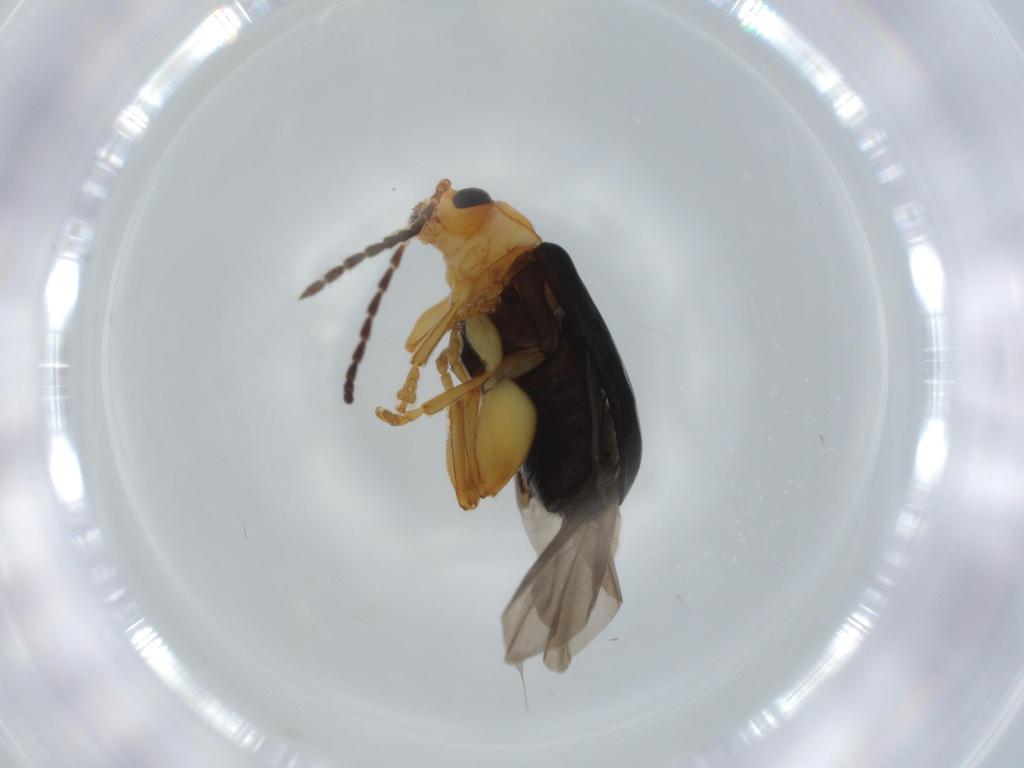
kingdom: Animalia
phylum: Arthropoda
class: Insecta
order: Coleoptera
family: Chrysomelidae
